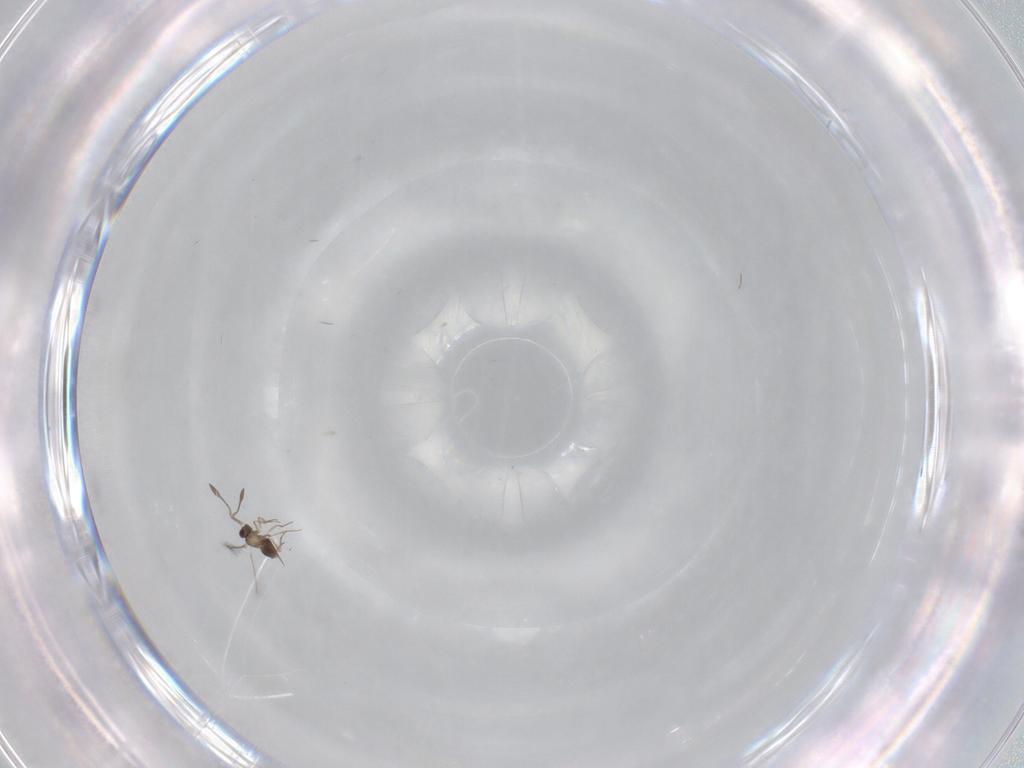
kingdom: Animalia
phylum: Arthropoda
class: Insecta
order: Hymenoptera
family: Mymaridae
